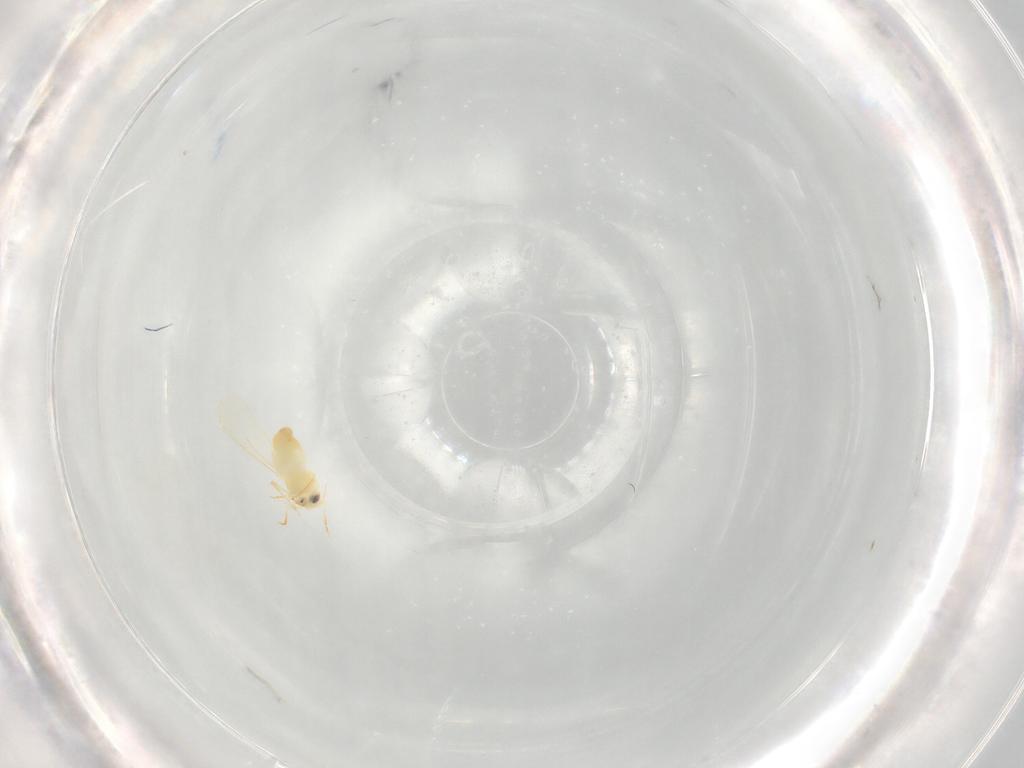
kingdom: Animalia
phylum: Arthropoda
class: Insecta
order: Hemiptera
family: Aleyrodidae
